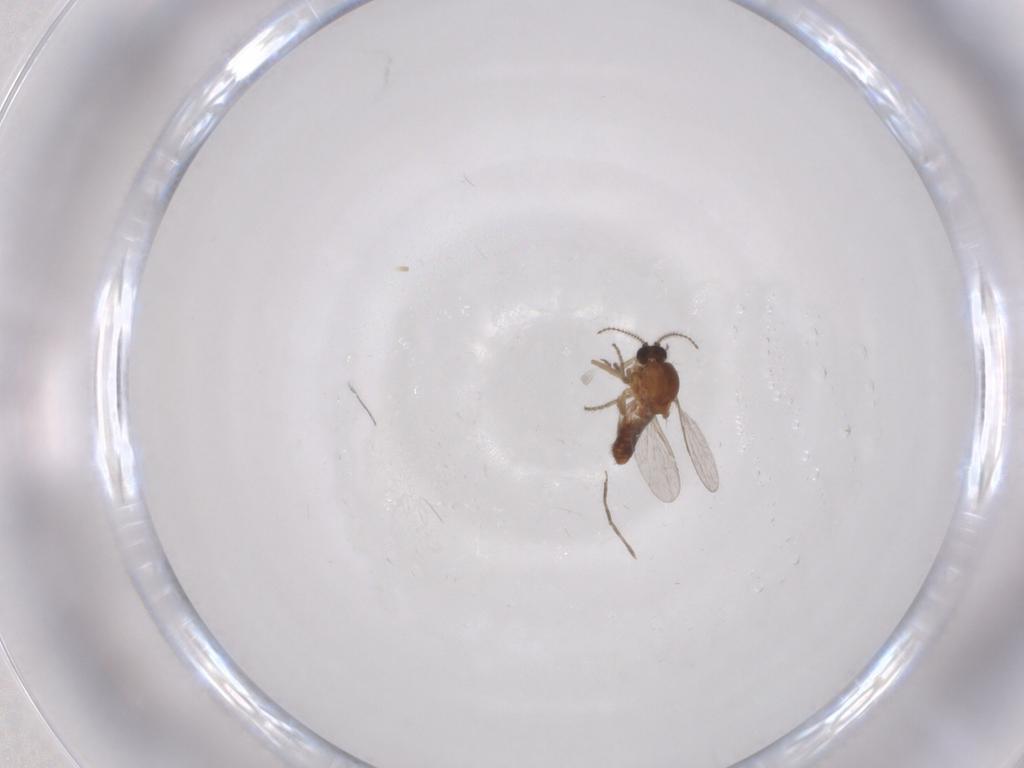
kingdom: Animalia
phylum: Arthropoda
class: Insecta
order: Diptera
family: Ceratopogonidae
